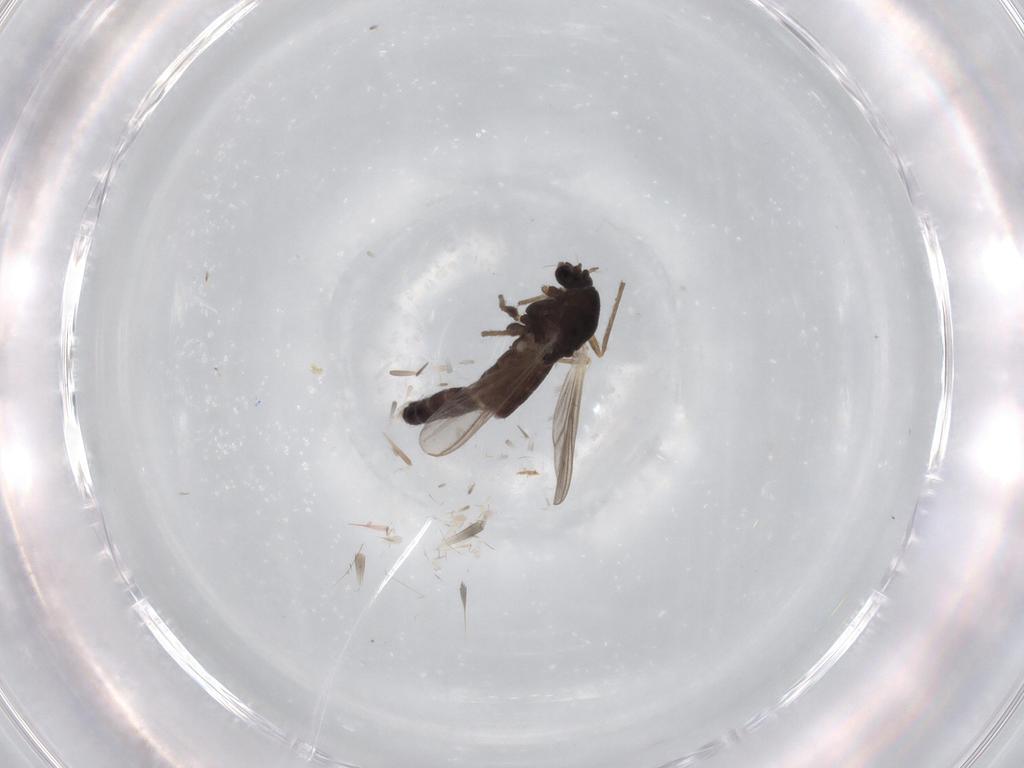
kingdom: Animalia
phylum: Arthropoda
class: Insecta
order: Diptera
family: Chironomidae
